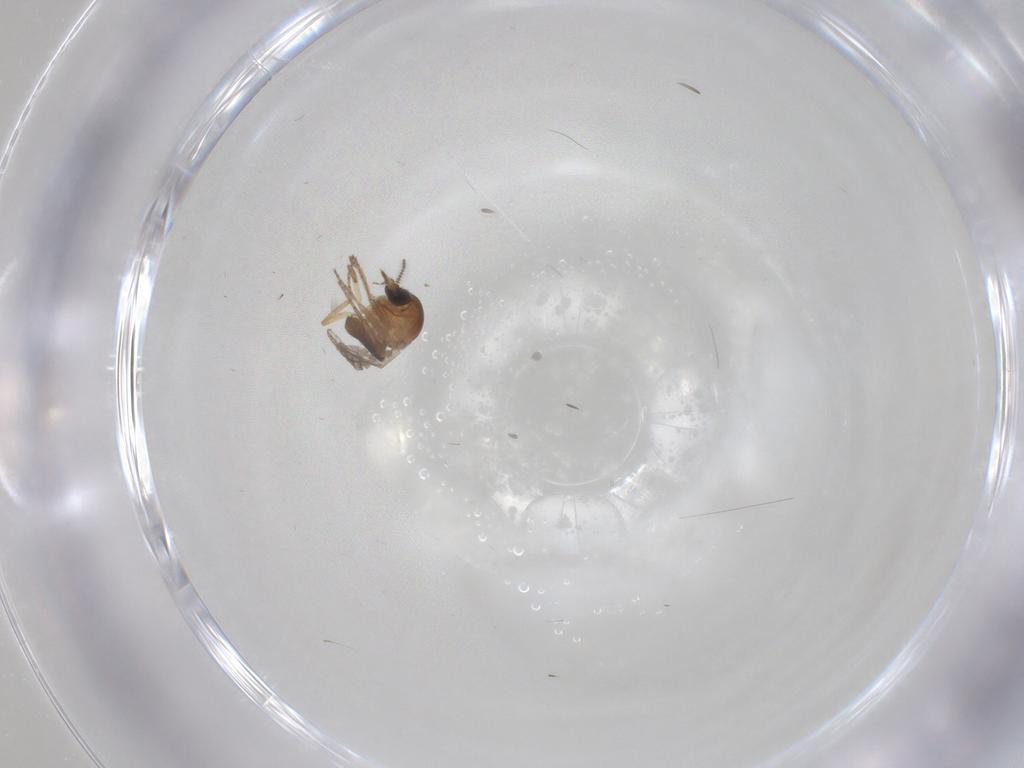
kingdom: Animalia
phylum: Arthropoda
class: Insecta
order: Diptera
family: Ceratopogonidae
